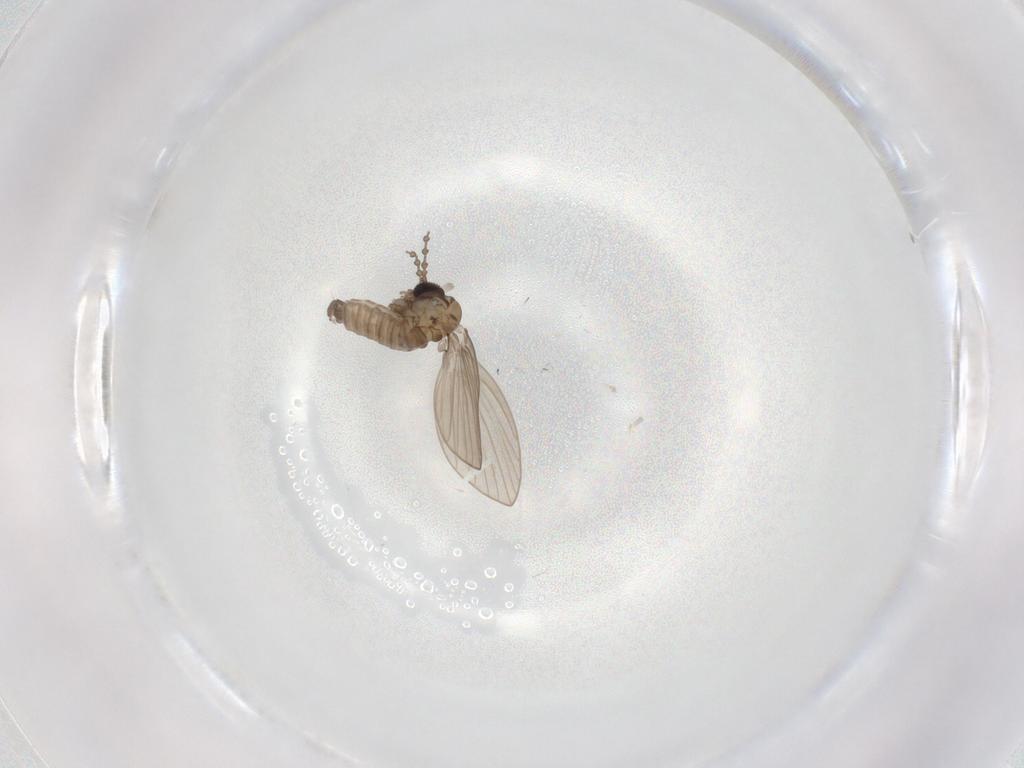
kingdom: Animalia
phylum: Arthropoda
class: Insecta
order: Diptera
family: Psychodidae
